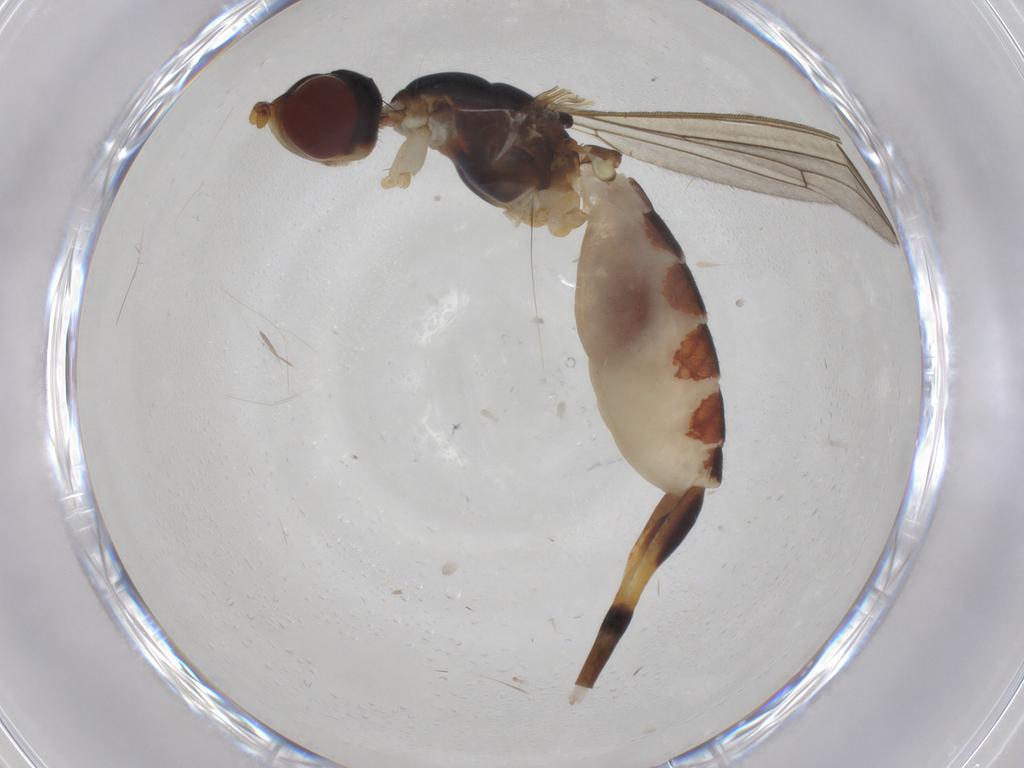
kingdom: Animalia
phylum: Arthropoda
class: Insecta
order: Diptera
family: Micropezidae
